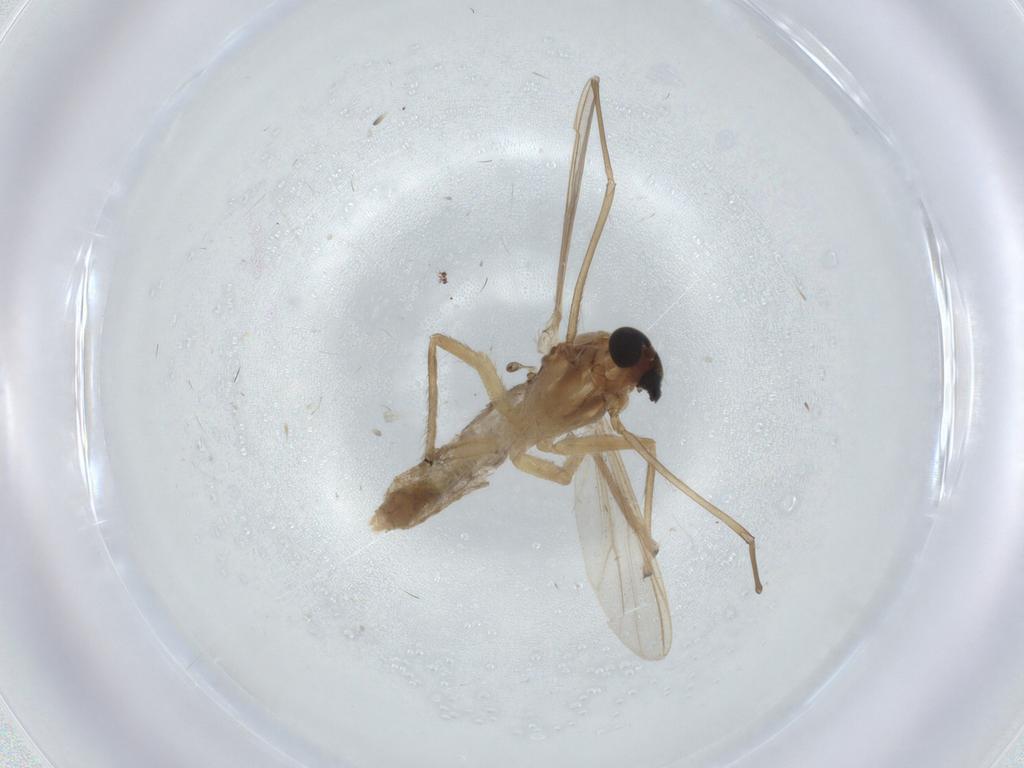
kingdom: Animalia
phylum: Arthropoda
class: Insecta
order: Diptera
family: Chironomidae
